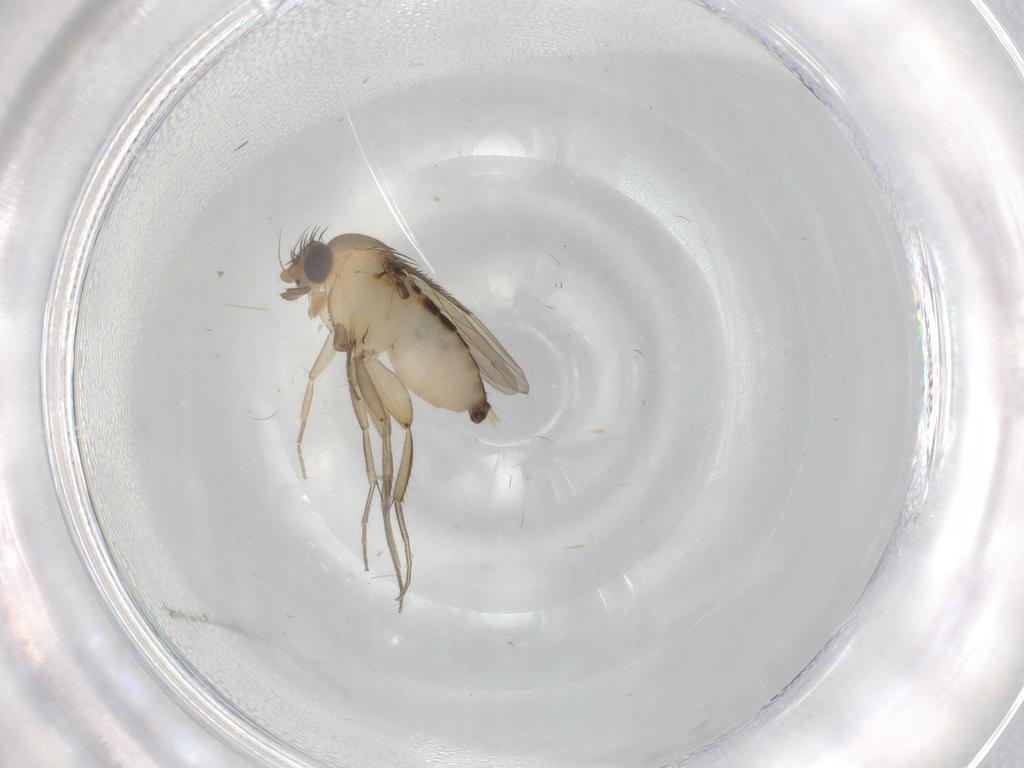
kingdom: Animalia
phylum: Arthropoda
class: Insecta
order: Diptera
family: Phoridae
